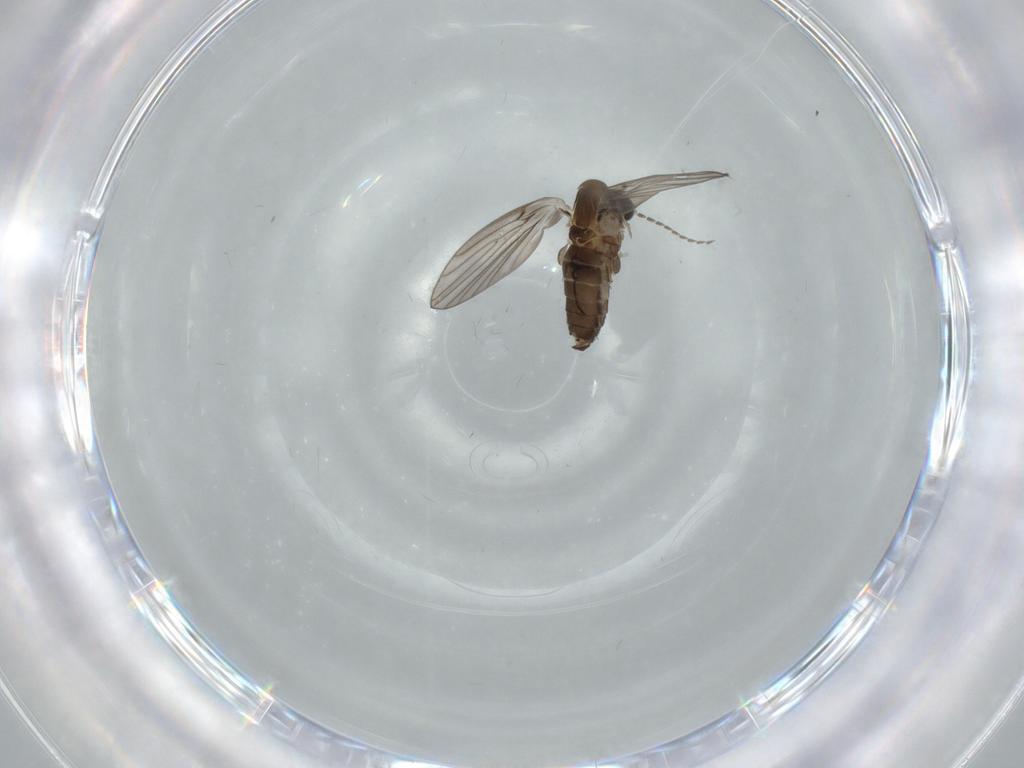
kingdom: Animalia
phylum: Arthropoda
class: Insecta
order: Diptera
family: Psychodidae
